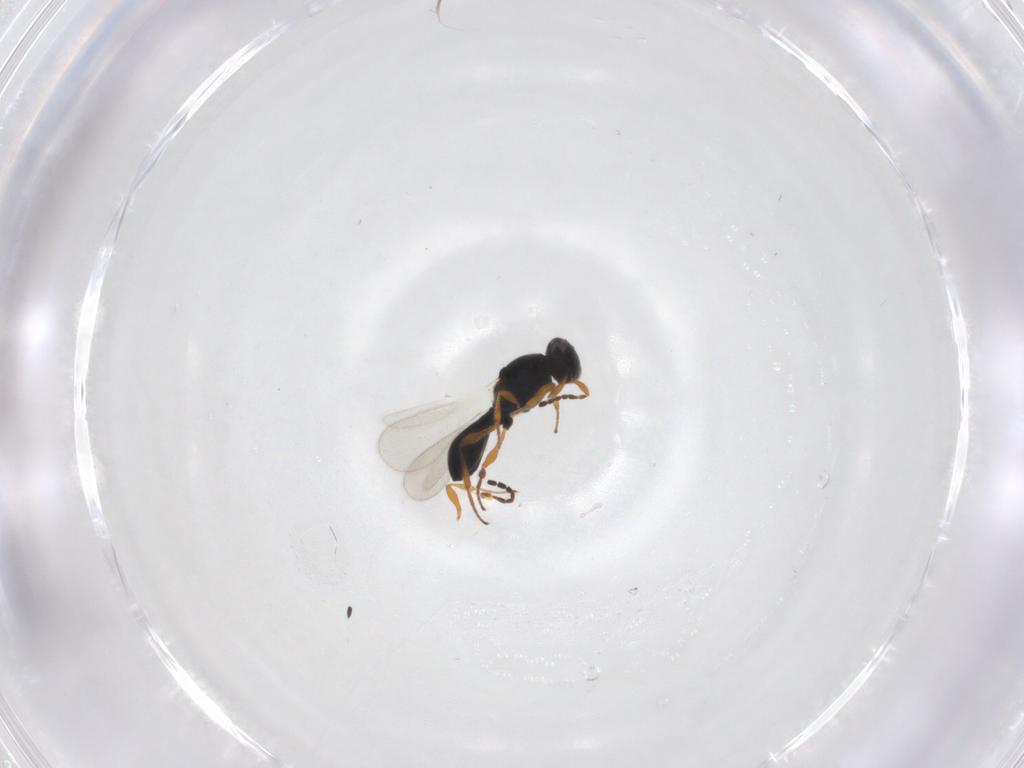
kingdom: Animalia
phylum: Arthropoda
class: Insecta
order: Hymenoptera
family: Platygastridae
